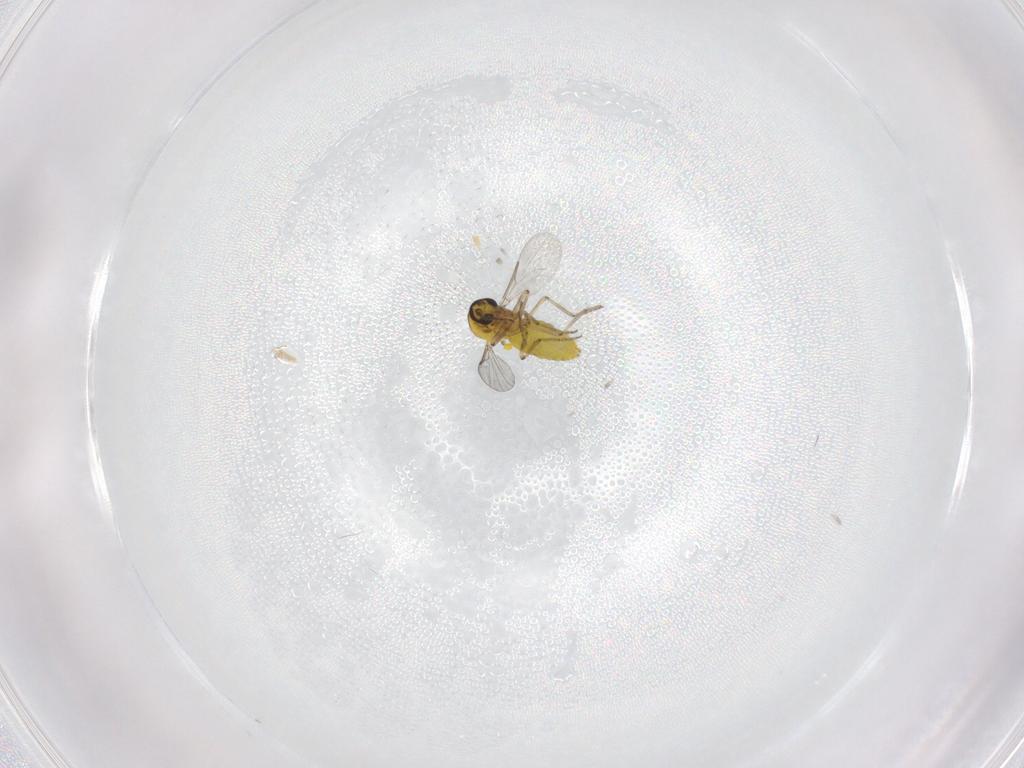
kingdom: Animalia
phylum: Arthropoda
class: Insecta
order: Diptera
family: Ceratopogonidae
